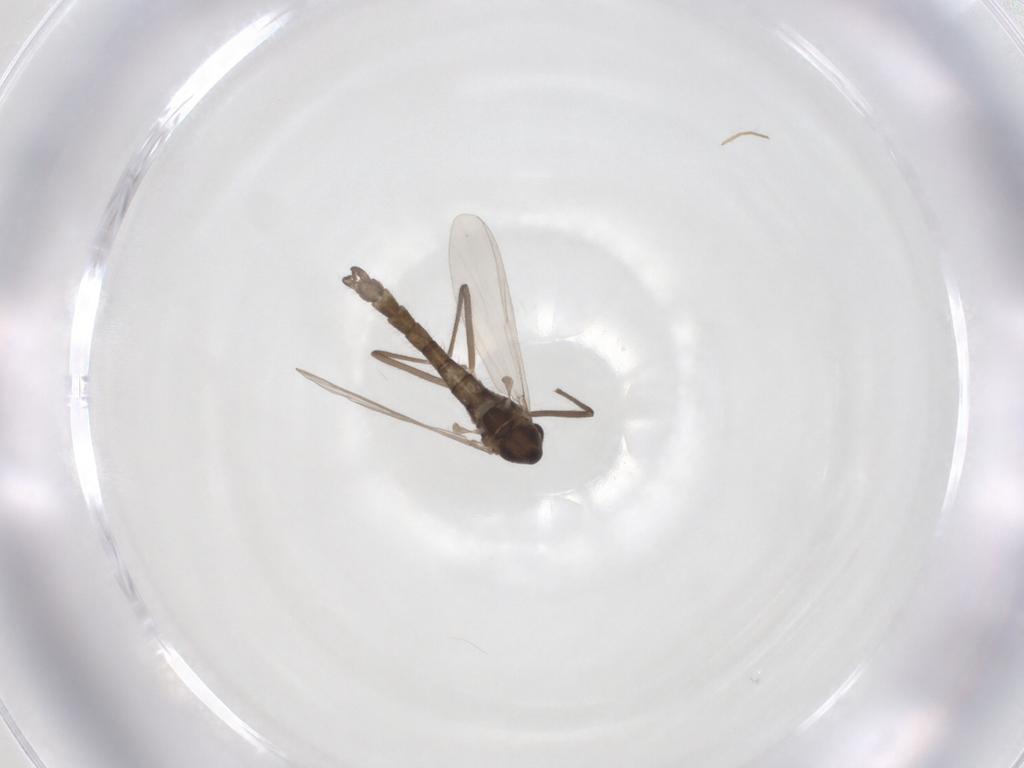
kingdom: Animalia
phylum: Arthropoda
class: Insecta
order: Diptera
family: Chironomidae
